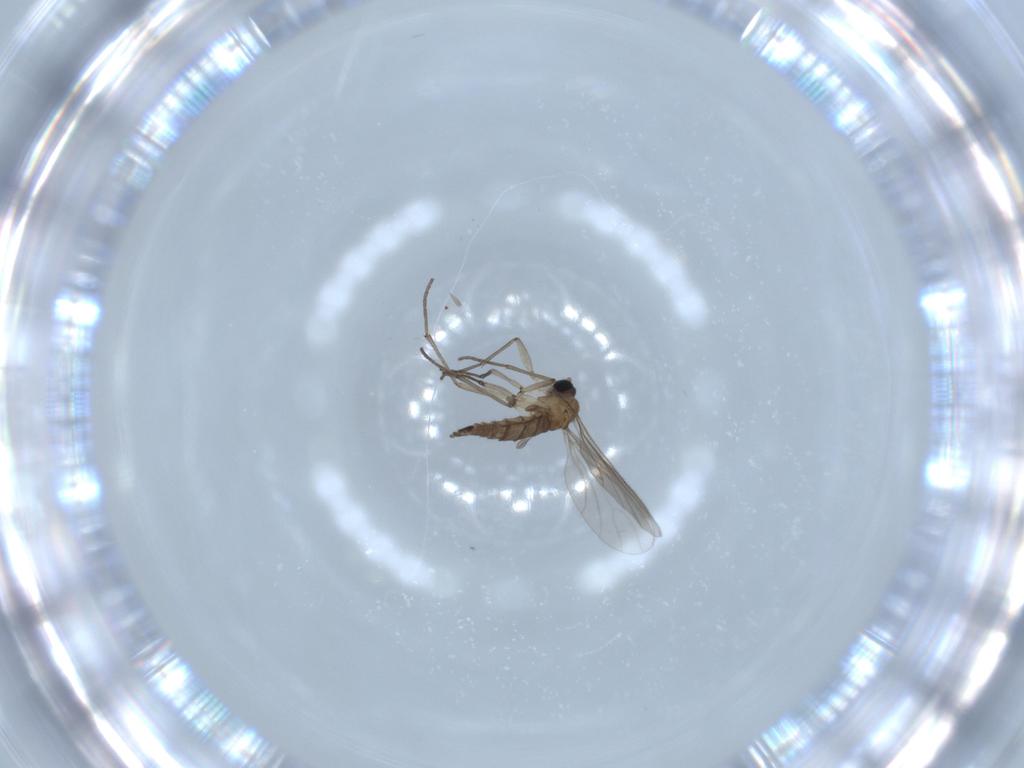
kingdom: Animalia
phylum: Arthropoda
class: Insecta
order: Diptera
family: Sciaridae
